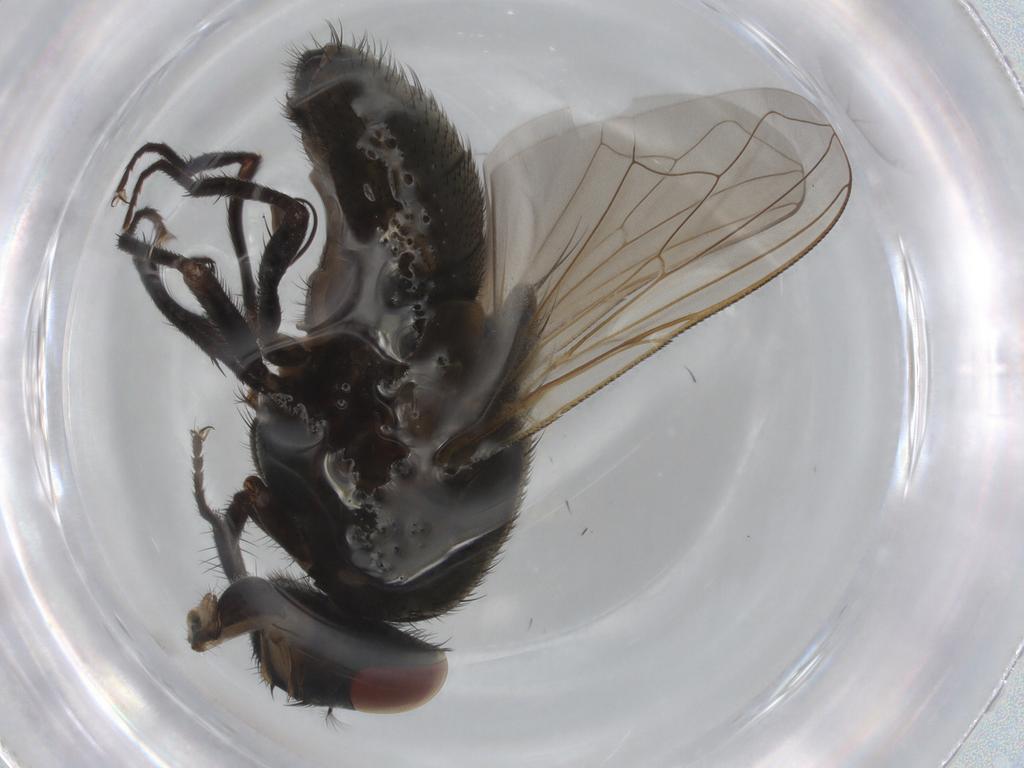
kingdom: Animalia
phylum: Arthropoda
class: Insecta
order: Diptera
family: Muscidae
